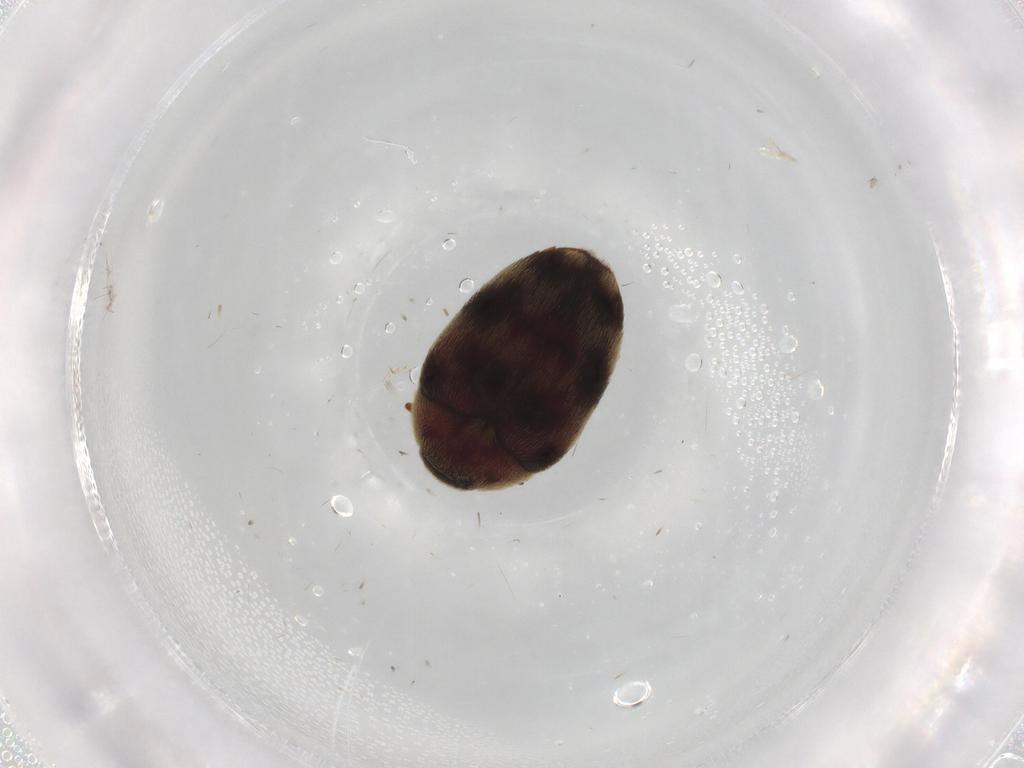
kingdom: Animalia
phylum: Arthropoda
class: Insecta
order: Coleoptera
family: Dermestidae
